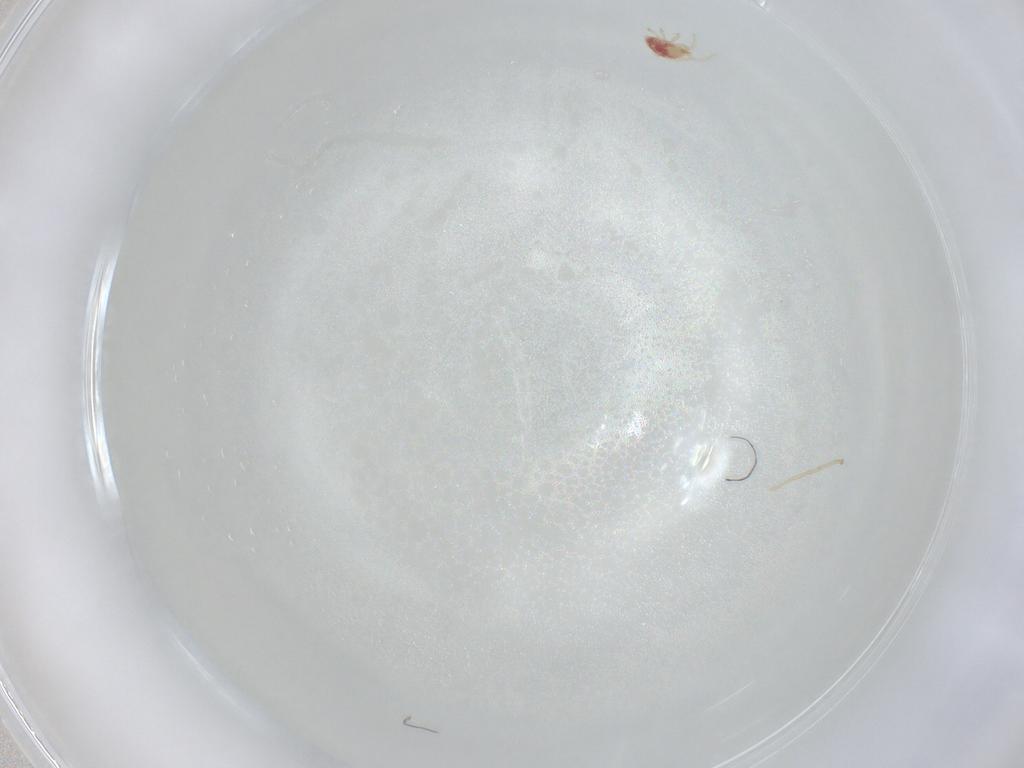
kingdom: Animalia
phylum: Arthropoda
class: Arachnida
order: Mesostigmata
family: Phytoseiidae
